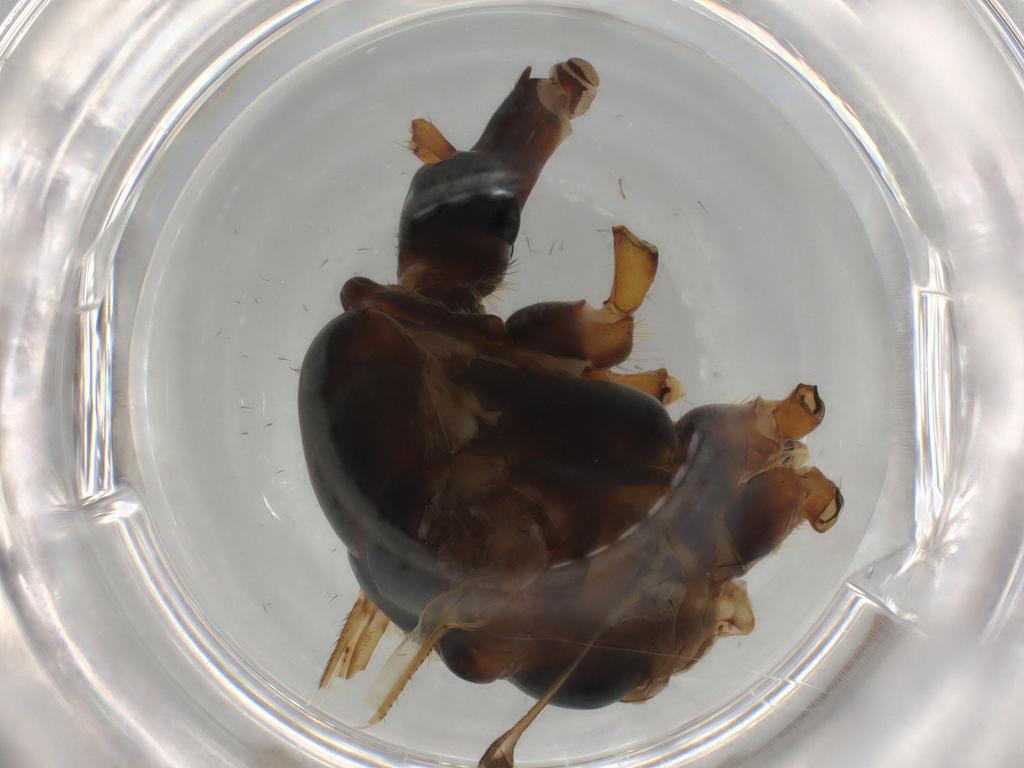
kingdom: Animalia
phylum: Arthropoda
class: Insecta
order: Diptera
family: Tipulidae
